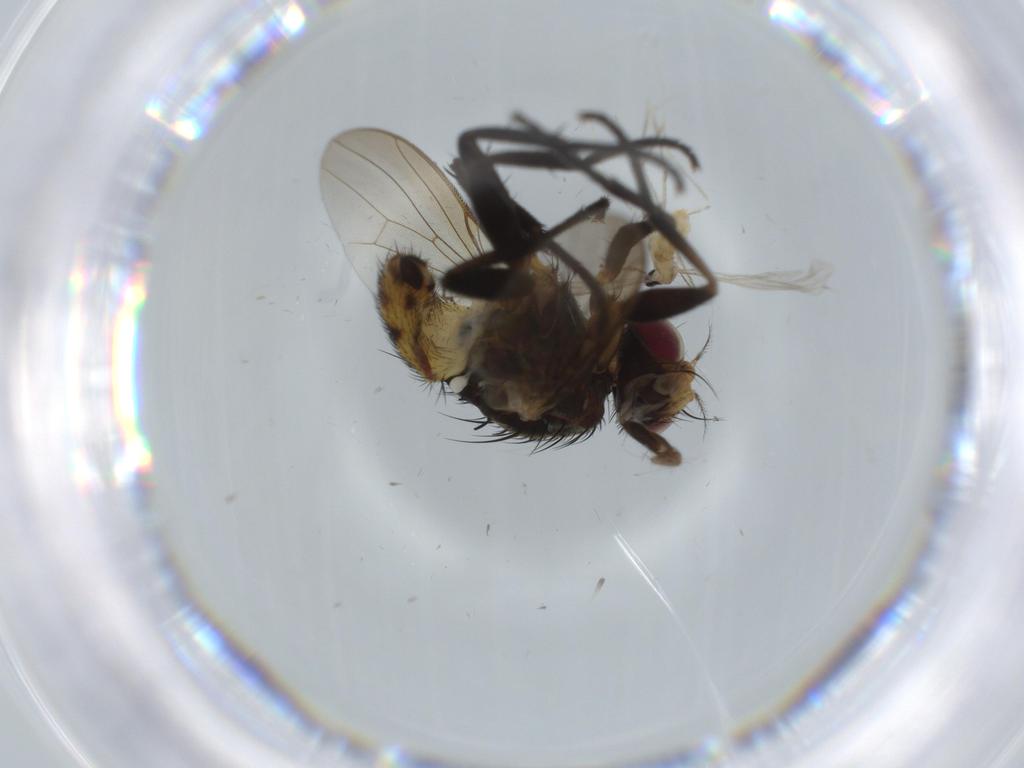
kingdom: Animalia
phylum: Arthropoda
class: Insecta
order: Diptera
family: Cecidomyiidae
